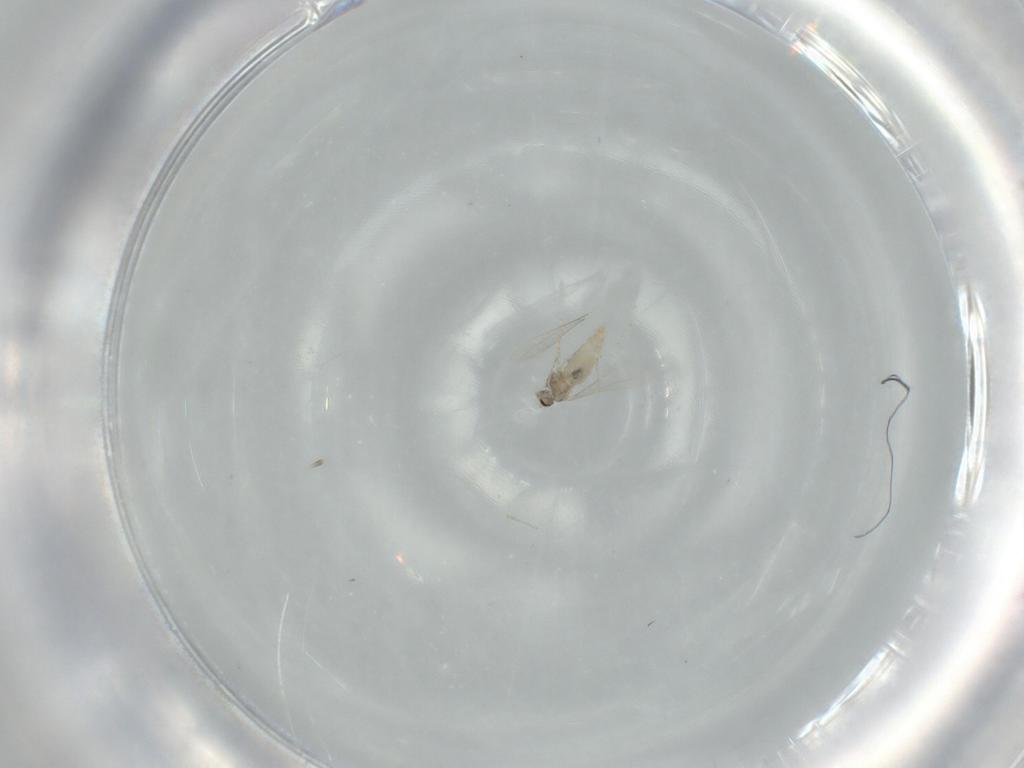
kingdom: Animalia
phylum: Arthropoda
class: Insecta
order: Diptera
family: Cecidomyiidae
